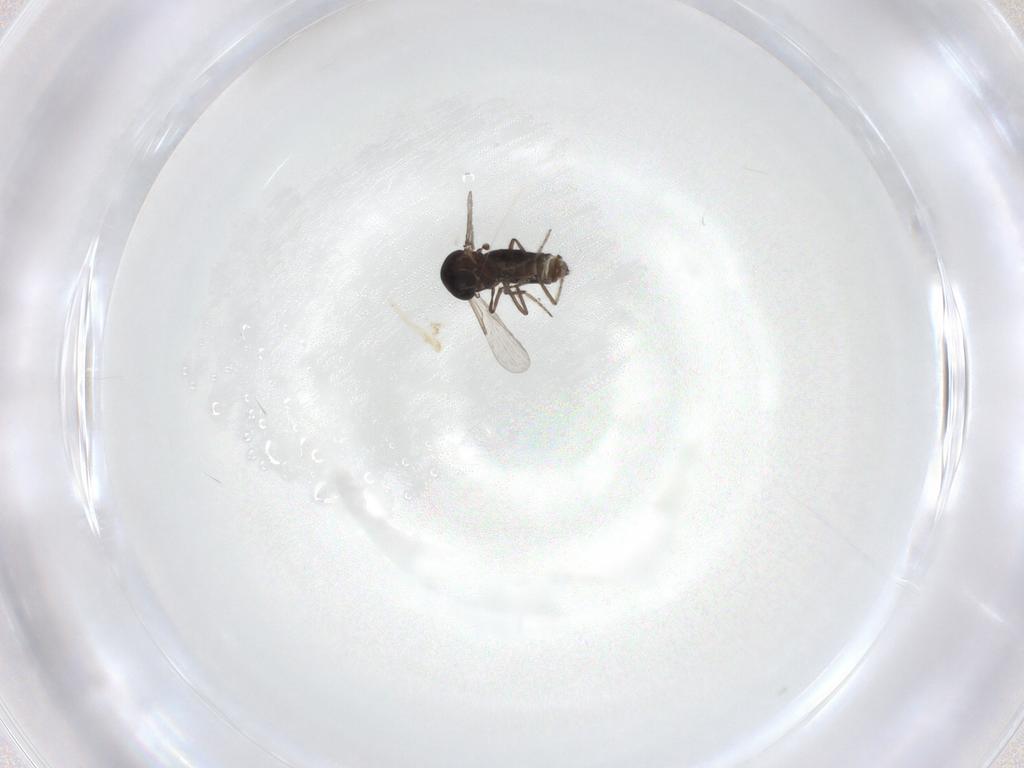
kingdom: Animalia
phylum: Arthropoda
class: Insecta
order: Diptera
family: Ceratopogonidae
